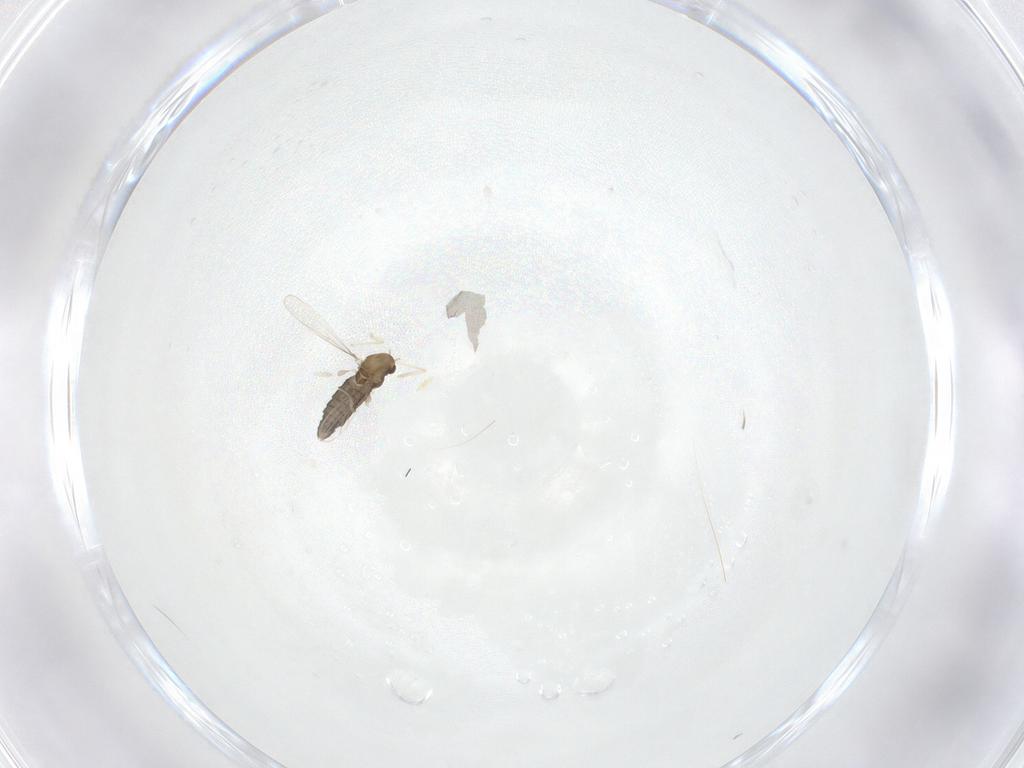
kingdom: Animalia
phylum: Arthropoda
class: Insecta
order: Diptera
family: Chironomidae
